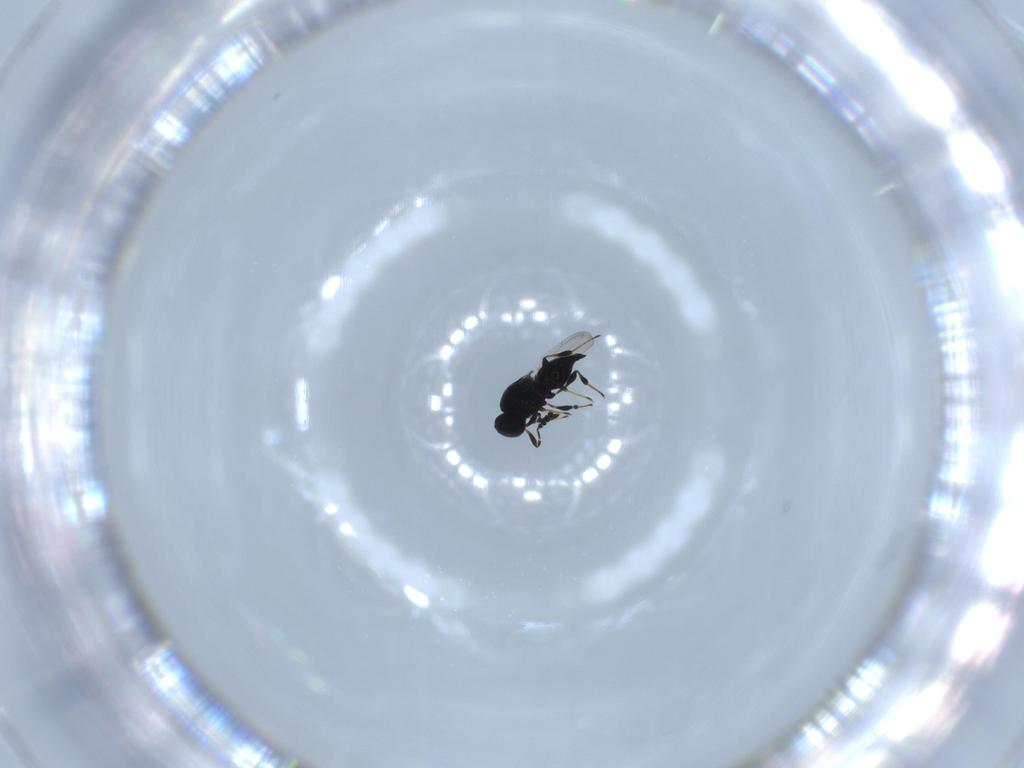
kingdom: Animalia
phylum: Arthropoda
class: Insecta
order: Hymenoptera
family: Platygastridae
